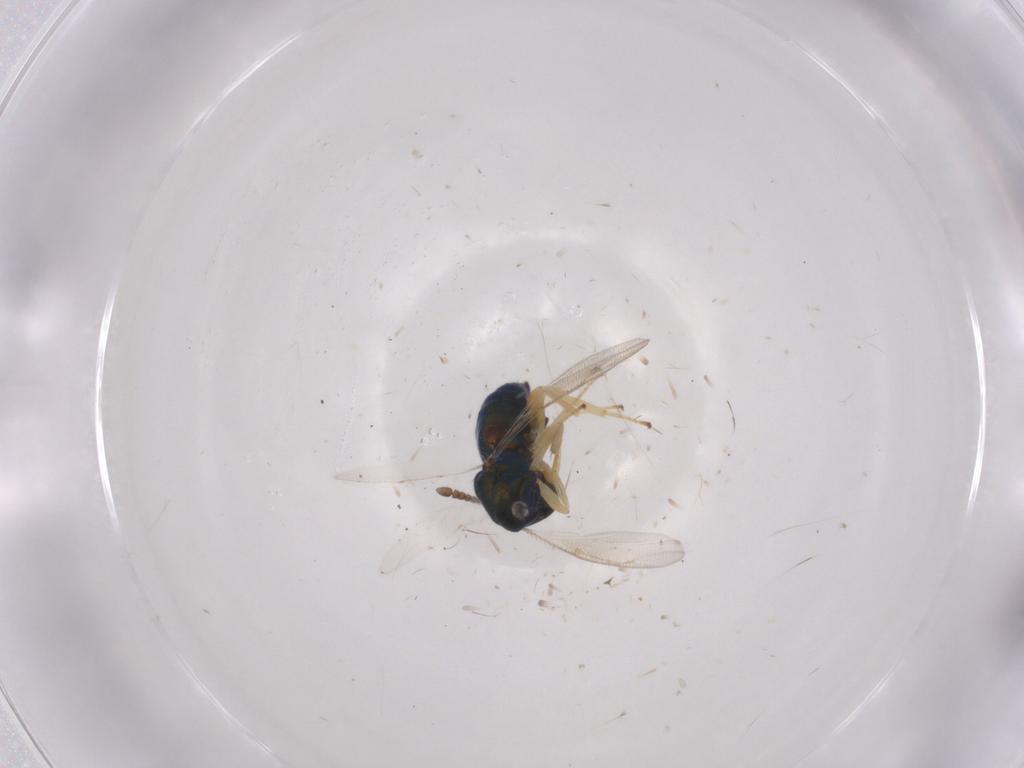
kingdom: Animalia
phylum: Arthropoda
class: Insecta
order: Hymenoptera
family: Pteromalidae
